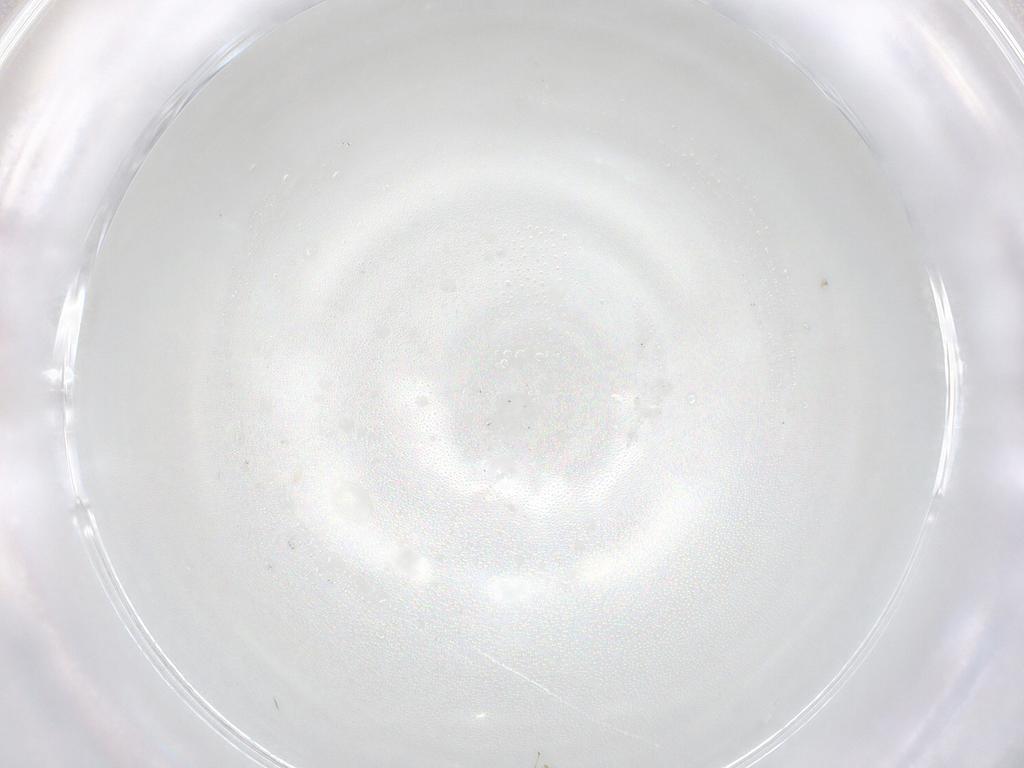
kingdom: Animalia
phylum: Arthropoda
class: Insecta
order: Hymenoptera
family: Eulophidae
